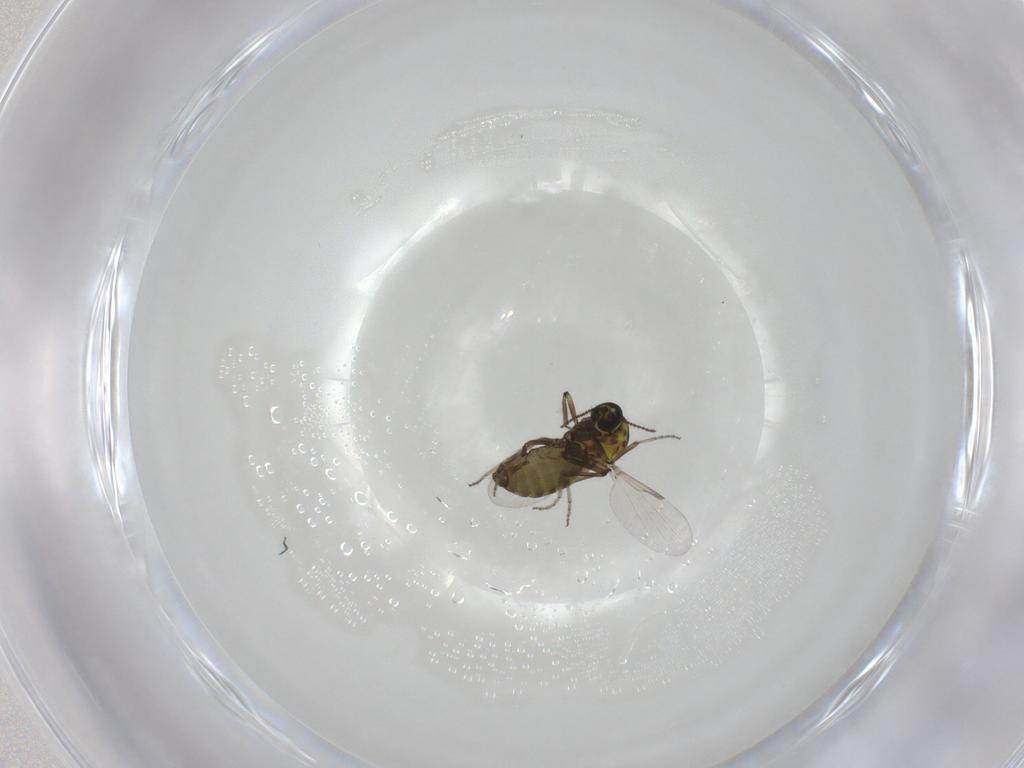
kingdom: Animalia
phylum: Arthropoda
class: Insecta
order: Diptera
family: Ceratopogonidae
